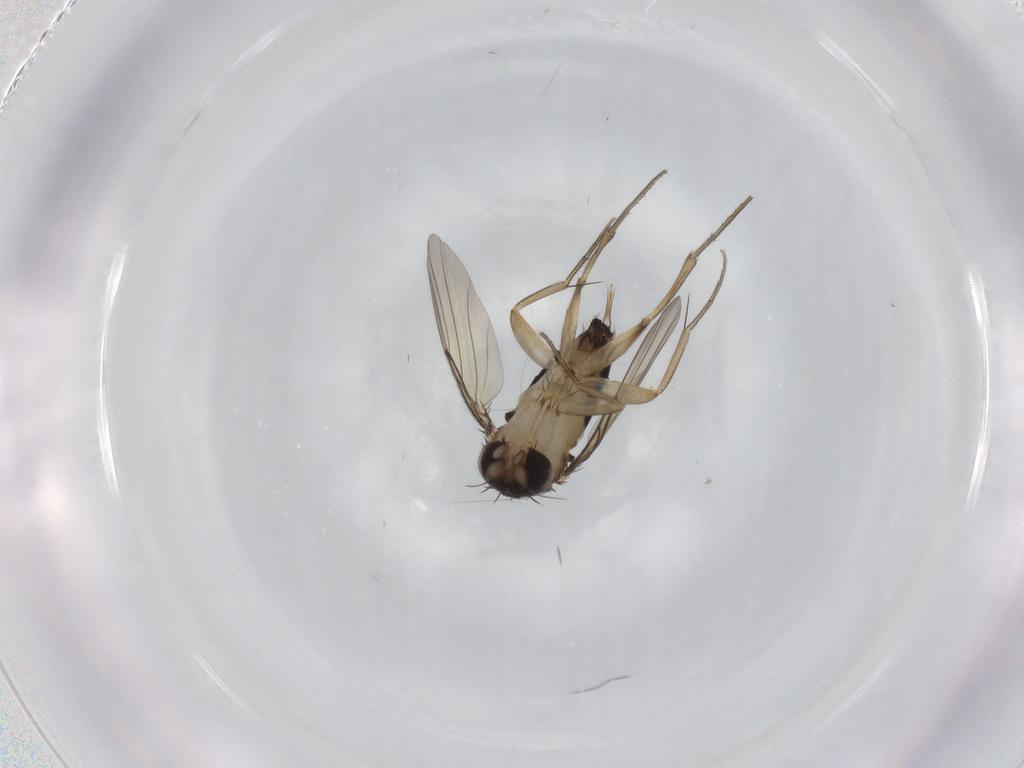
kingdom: Animalia
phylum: Arthropoda
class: Insecta
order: Diptera
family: Phoridae
